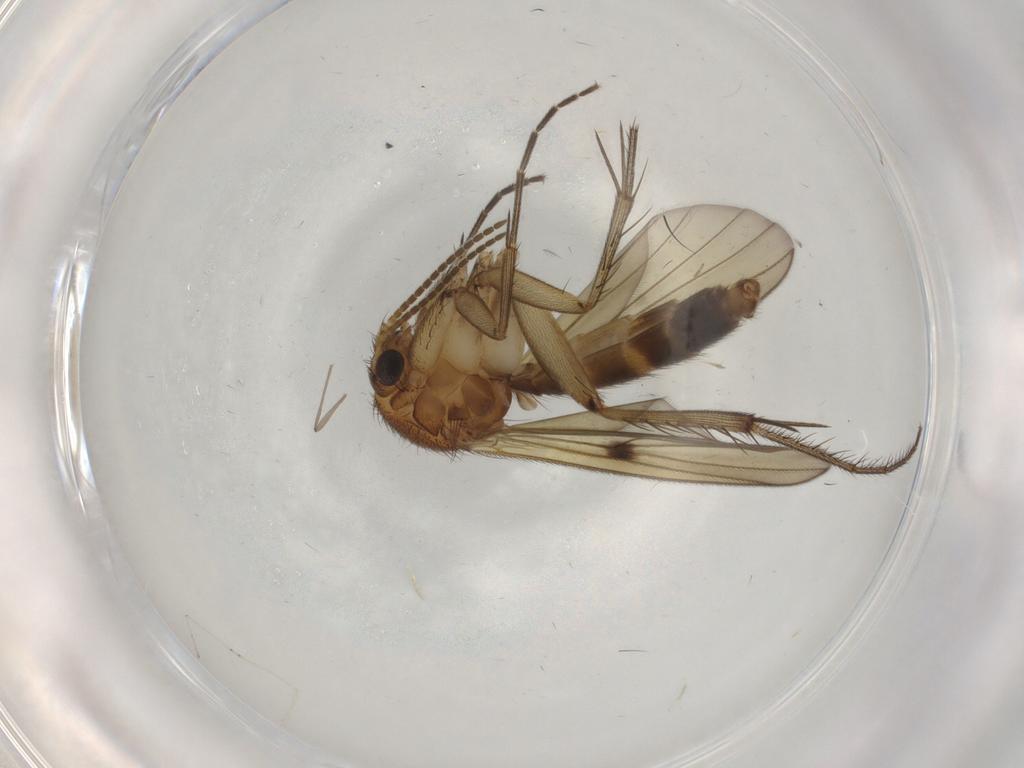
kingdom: Animalia
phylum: Arthropoda
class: Insecta
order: Diptera
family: Mycetophilidae
